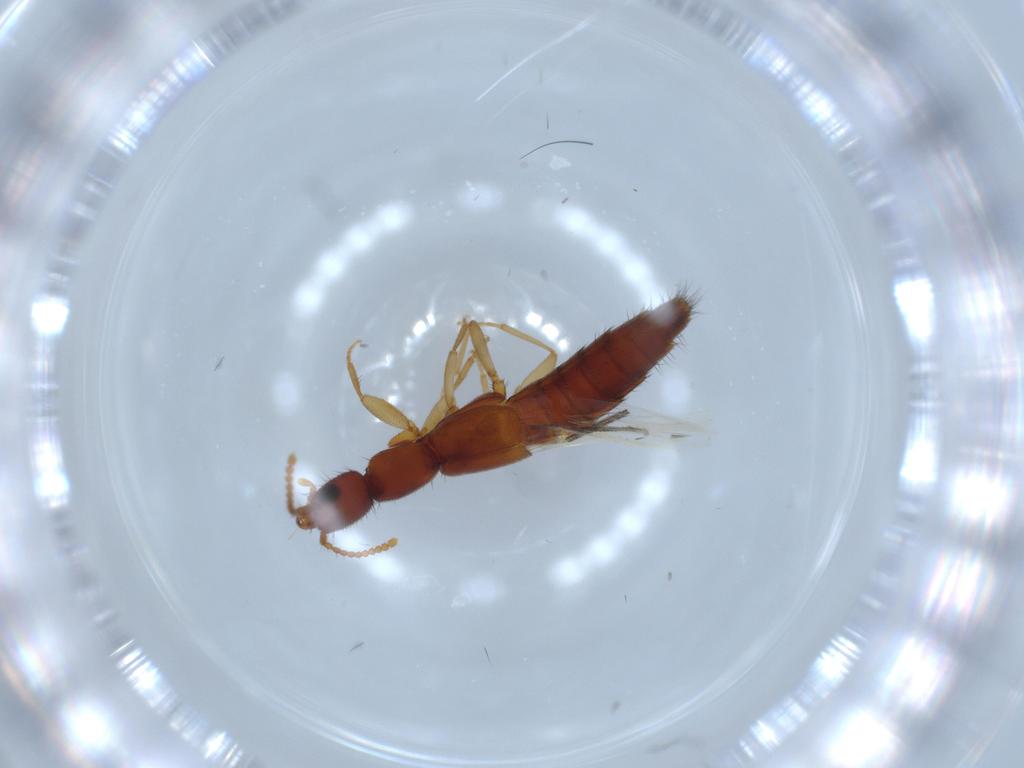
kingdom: Animalia
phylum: Arthropoda
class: Insecta
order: Coleoptera
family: Staphylinidae
